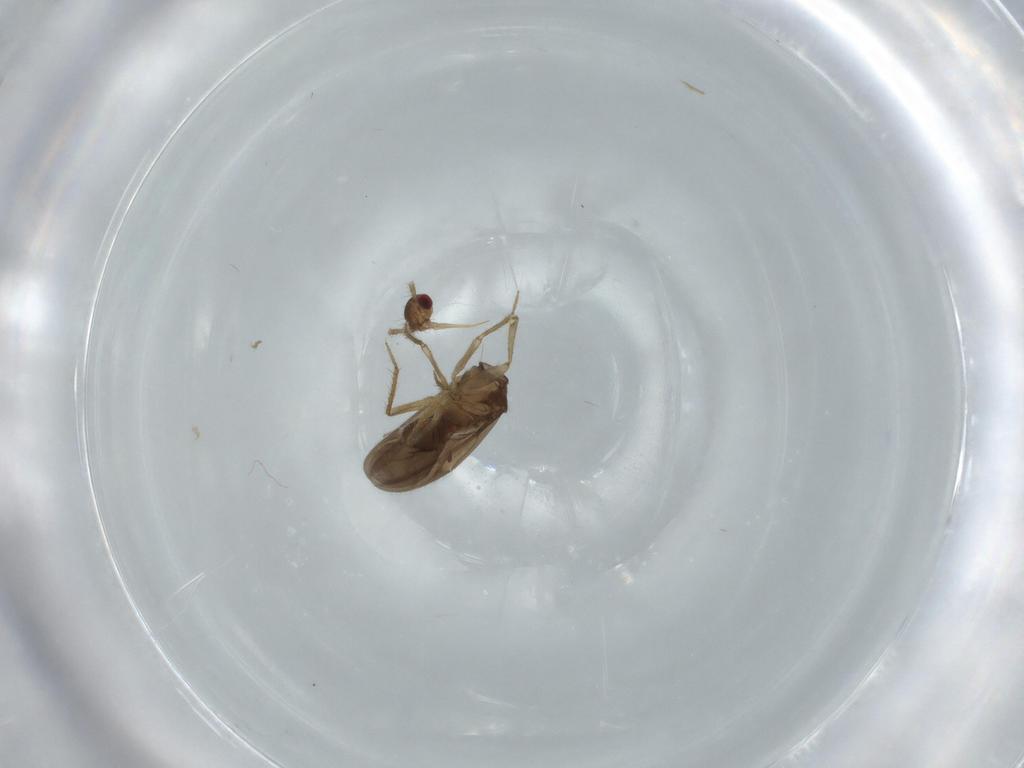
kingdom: Animalia
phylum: Arthropoda
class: Insecta
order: Hemiptera
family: Ceratocombidae
